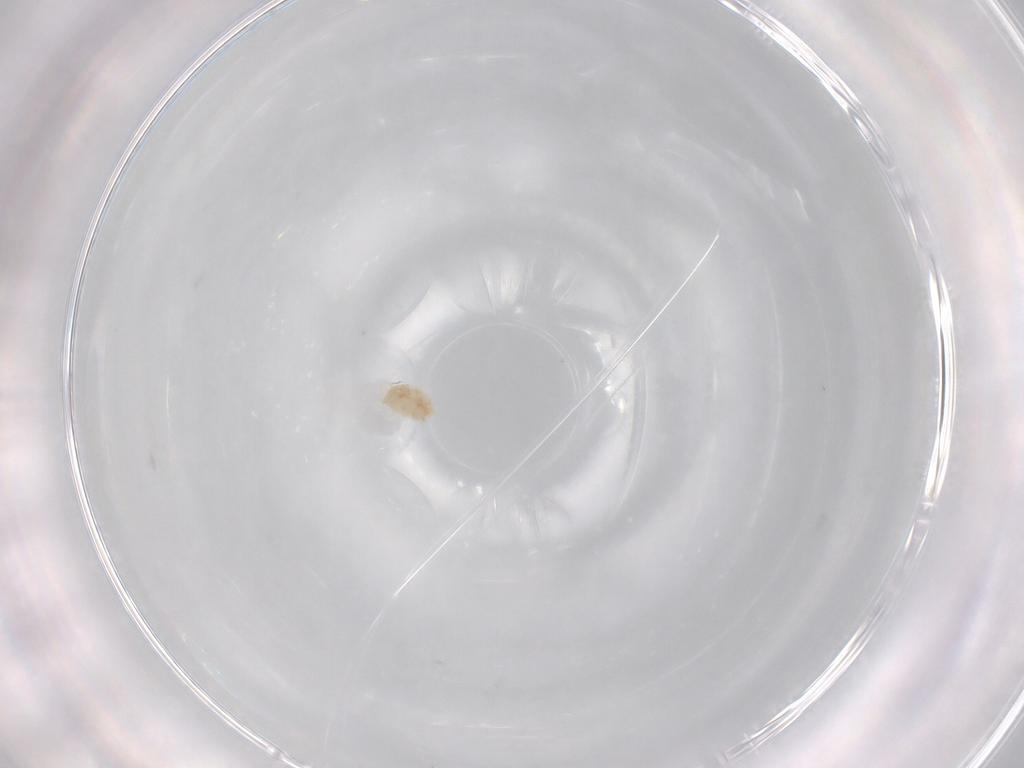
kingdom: Animalia
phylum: Arthropoda
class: Arachnida
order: Trombidiformes
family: Eupodidae
